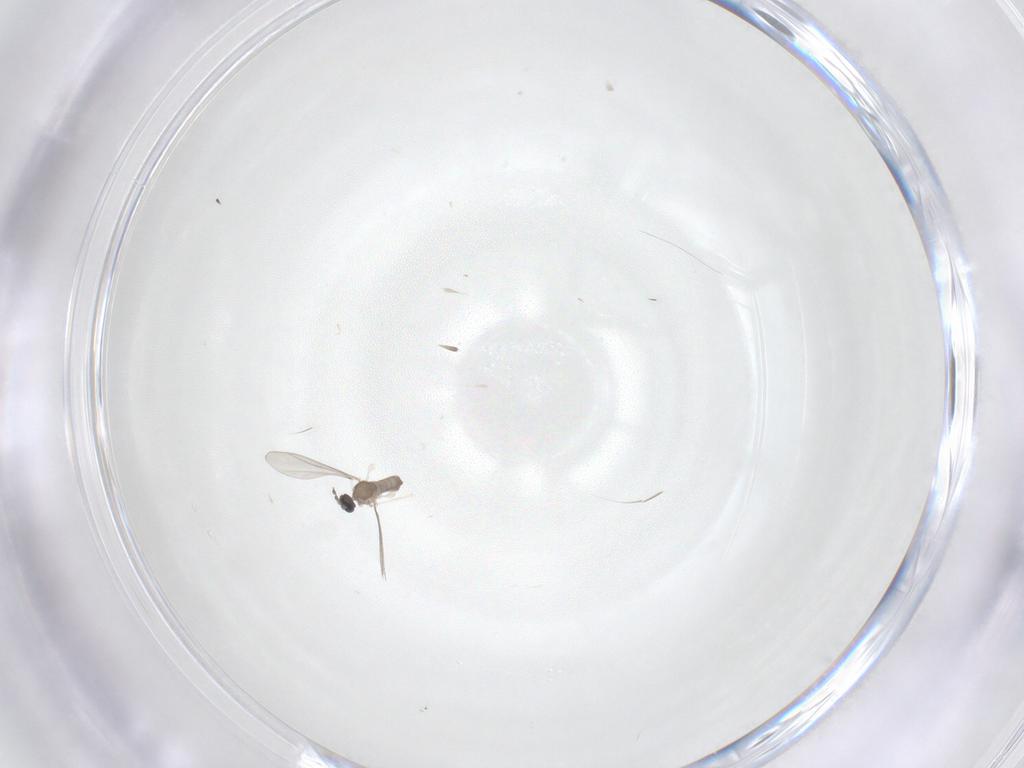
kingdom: Animalia
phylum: Arthropoda
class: Insecta
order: Diptera
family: Cecidomyiidae
